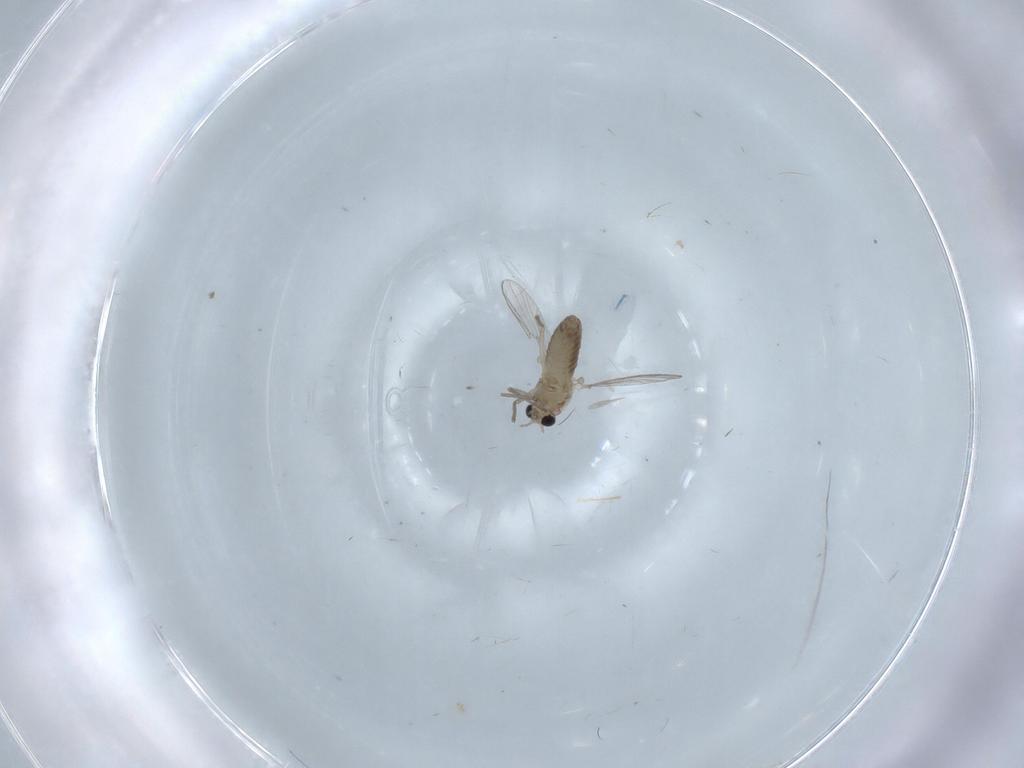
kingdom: Animalia
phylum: Arthropoda
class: Insecta
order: Diptera
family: Chironomidae
